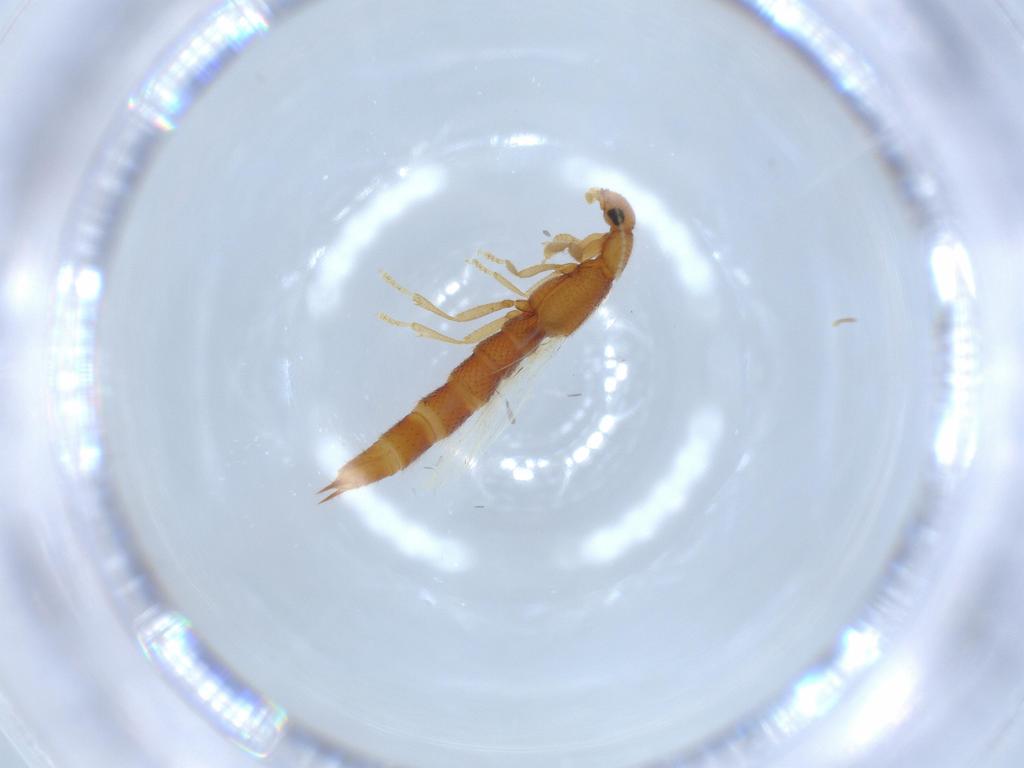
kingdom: Animalia
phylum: Arthropoda
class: Insecta
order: Coleoptera
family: Staphylinidae
